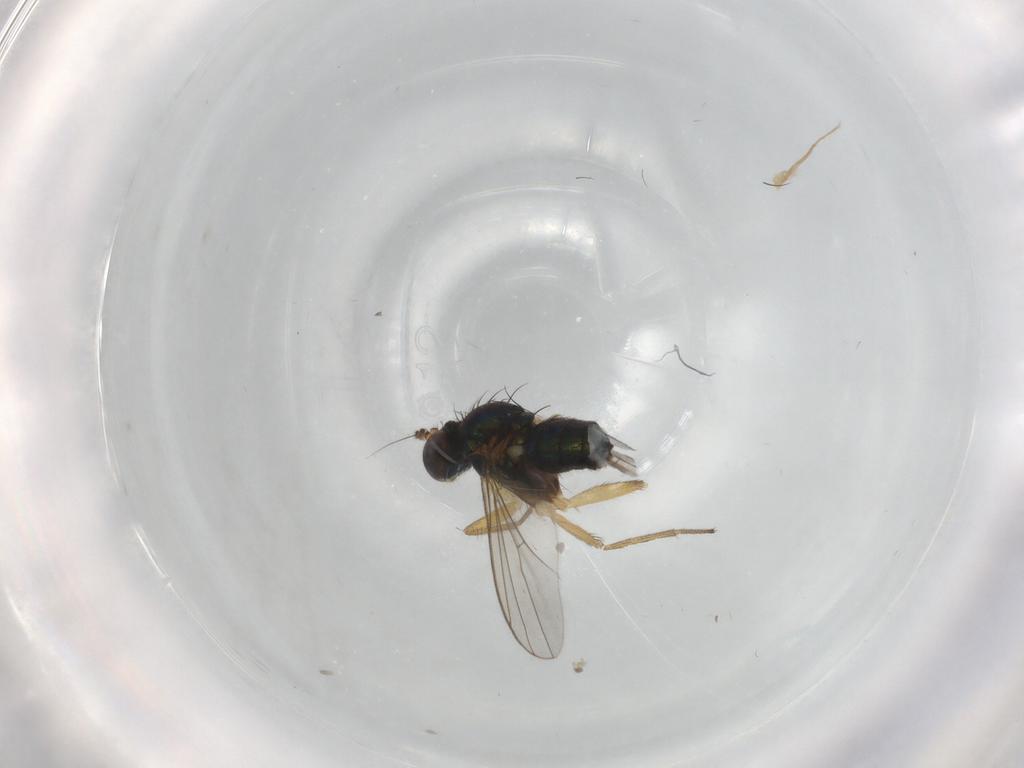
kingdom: Animalia
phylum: Arthropoda
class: Insecta
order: Diptera
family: Dolichopodidae
